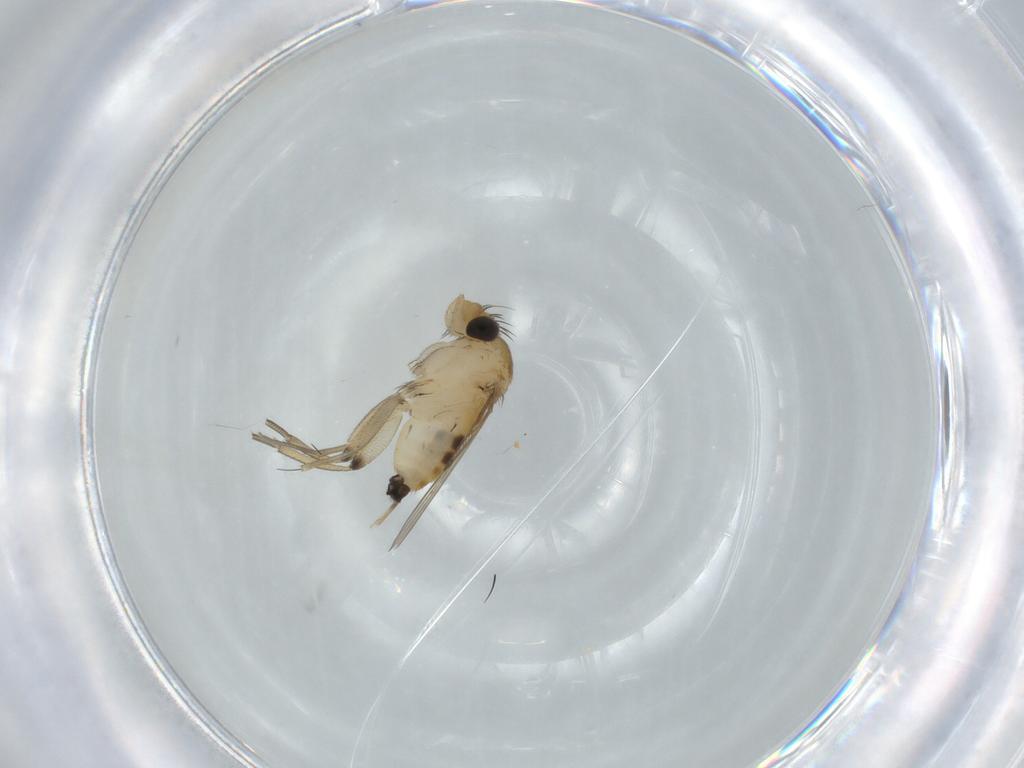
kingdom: Animalia
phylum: Arthropoda
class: Insecta
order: Diptera
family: Phoridae
